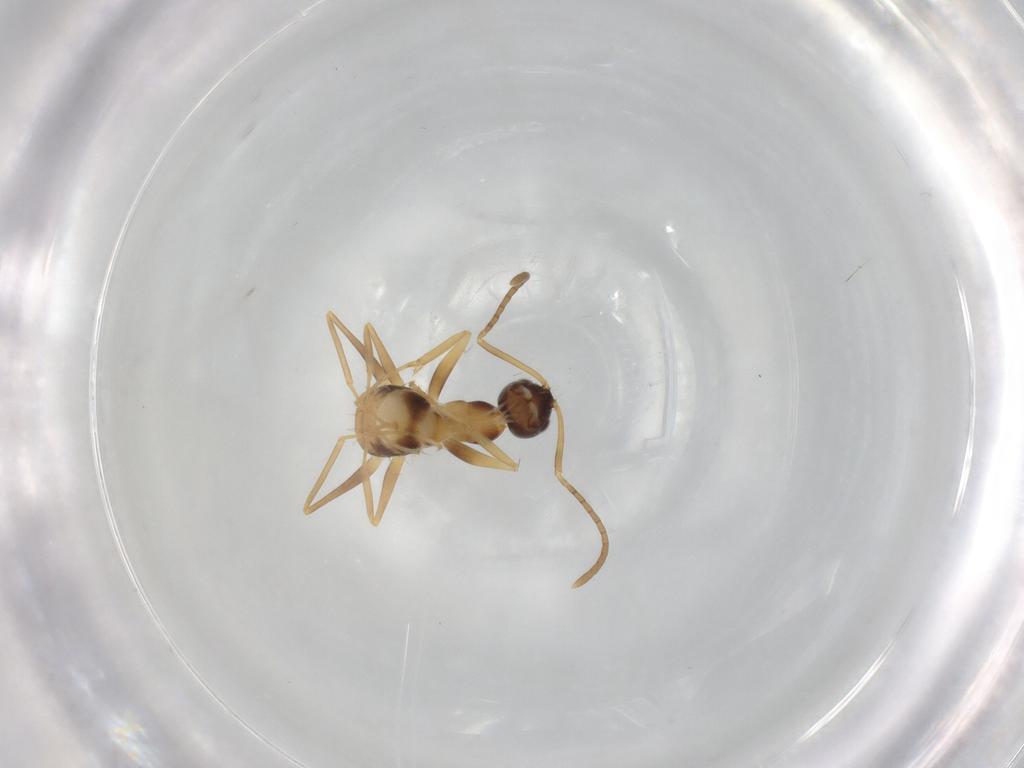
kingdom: Animalia
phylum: Arthropoda
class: Insecta
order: Hymenoptera
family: Formicidae
